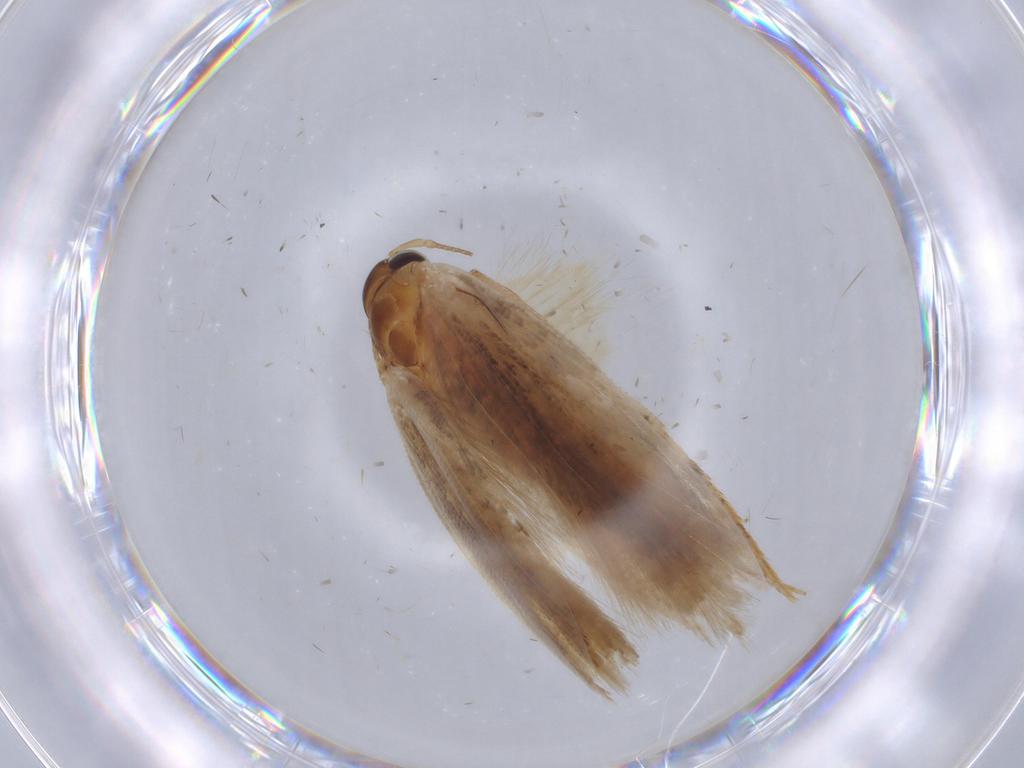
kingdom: Animalia
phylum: Arthropoda
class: Insecta
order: Lepidoptera
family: Gelechiidae
